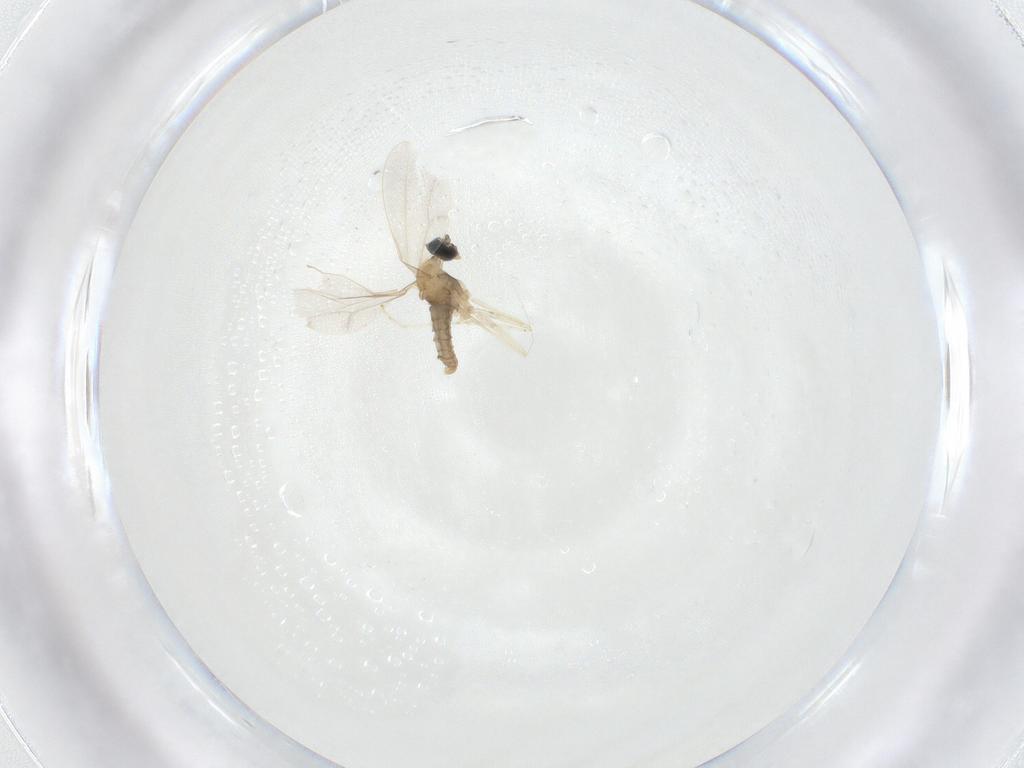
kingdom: Animalia
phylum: Arthropoda
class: Insecta
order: Diptera
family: Cecidomyiidae
